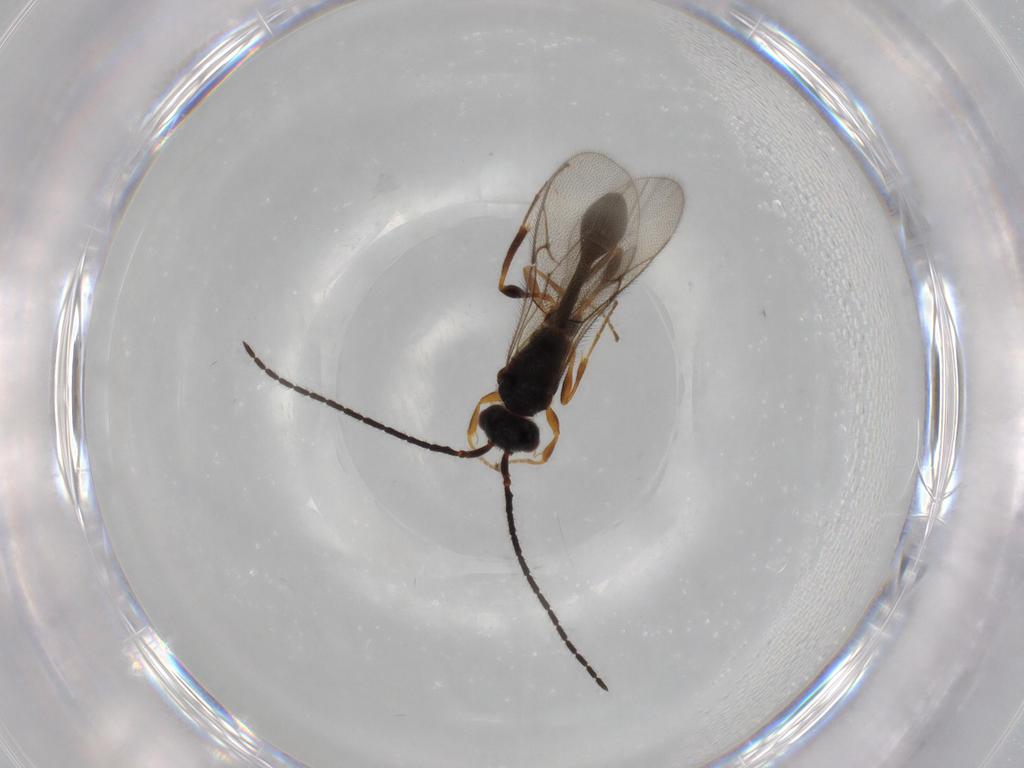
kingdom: Animalia
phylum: Arthropoda
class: Insecta
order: Hymenoptera
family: Diapriidae
